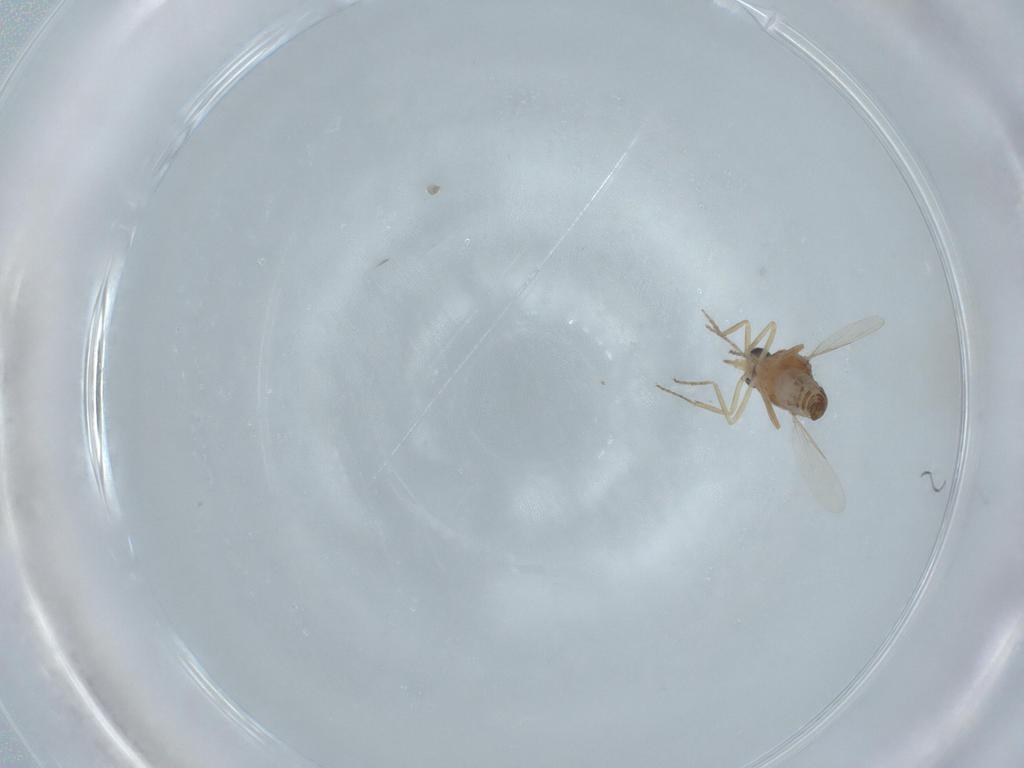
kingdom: Animalia
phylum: Arthropoda
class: Insecta
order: Diptera
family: Ceratopogonidae
